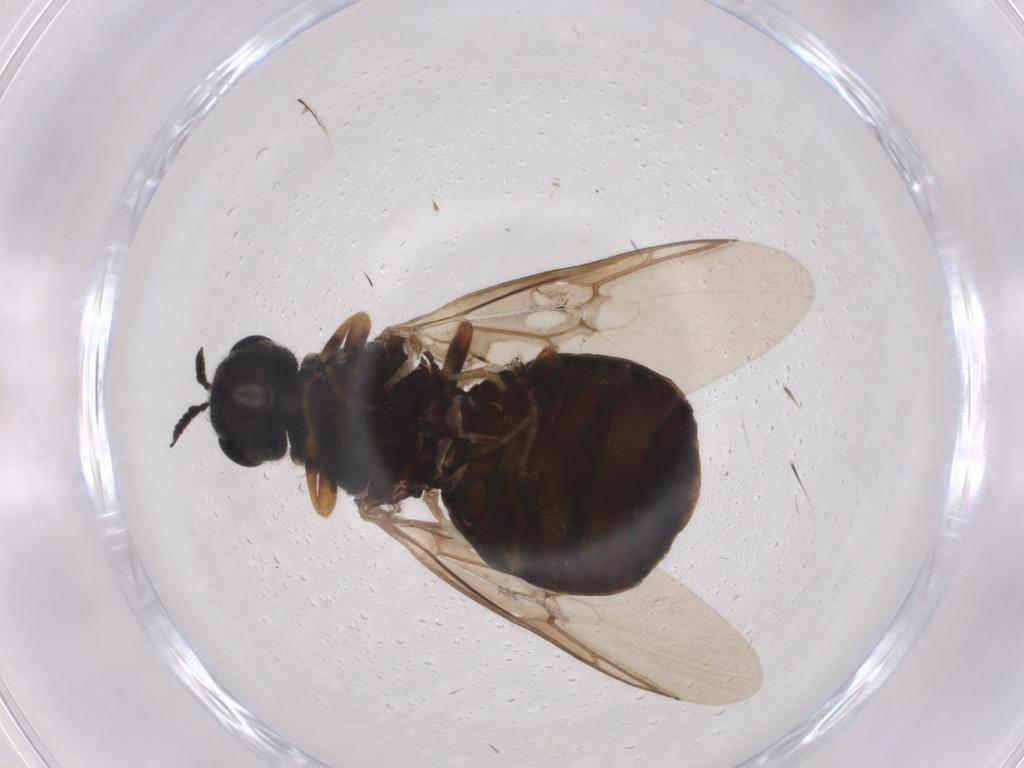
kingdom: Animalia
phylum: Arthropoda
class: Insecta
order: Diptera
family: Stratiomyidae
